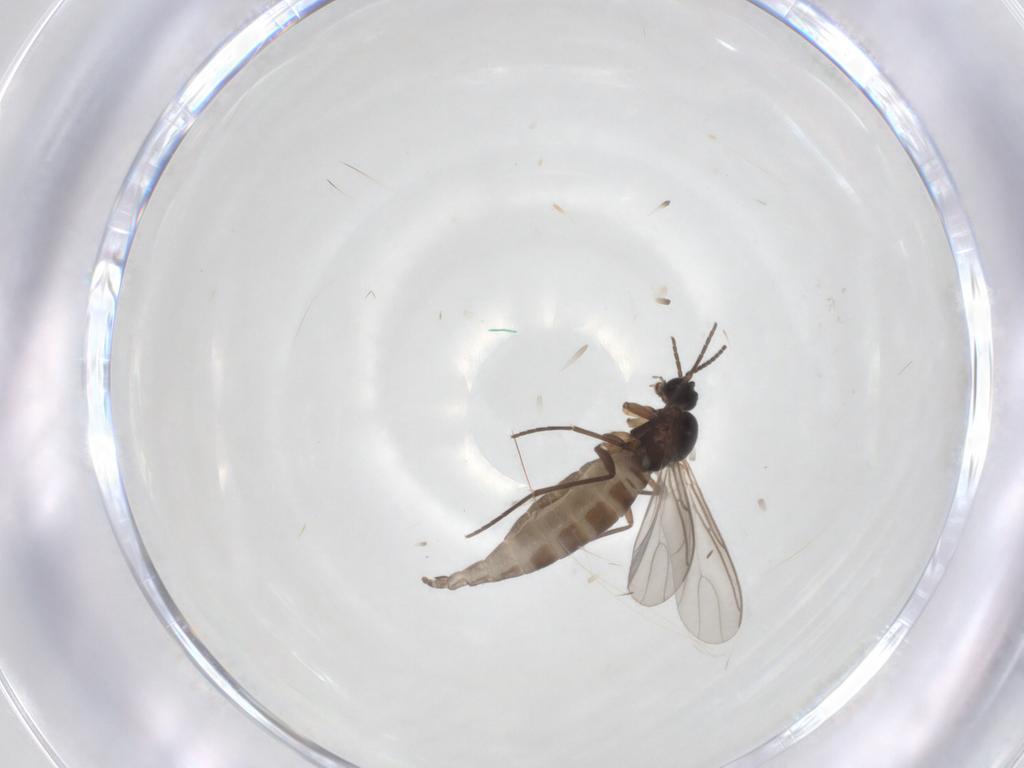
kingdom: Animalia
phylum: Arthropoda
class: Insecta
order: Diptera
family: Sciaridae
